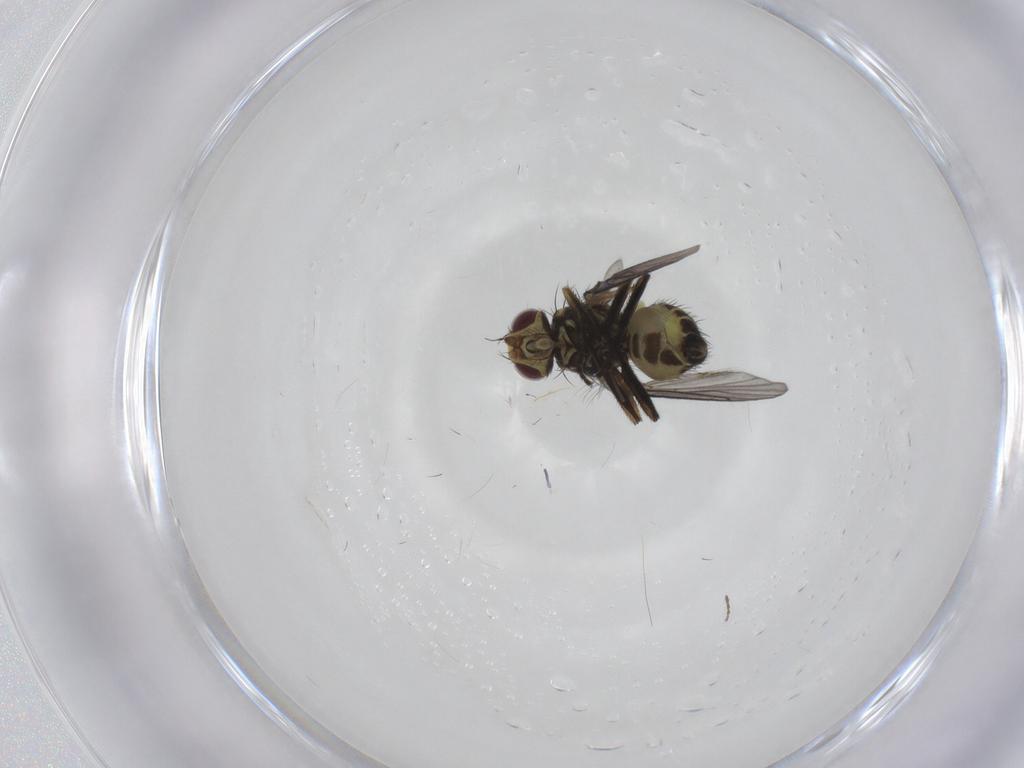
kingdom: Animalia
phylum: Arthropoda
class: Insecta
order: Diptera
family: Agromyzidae
